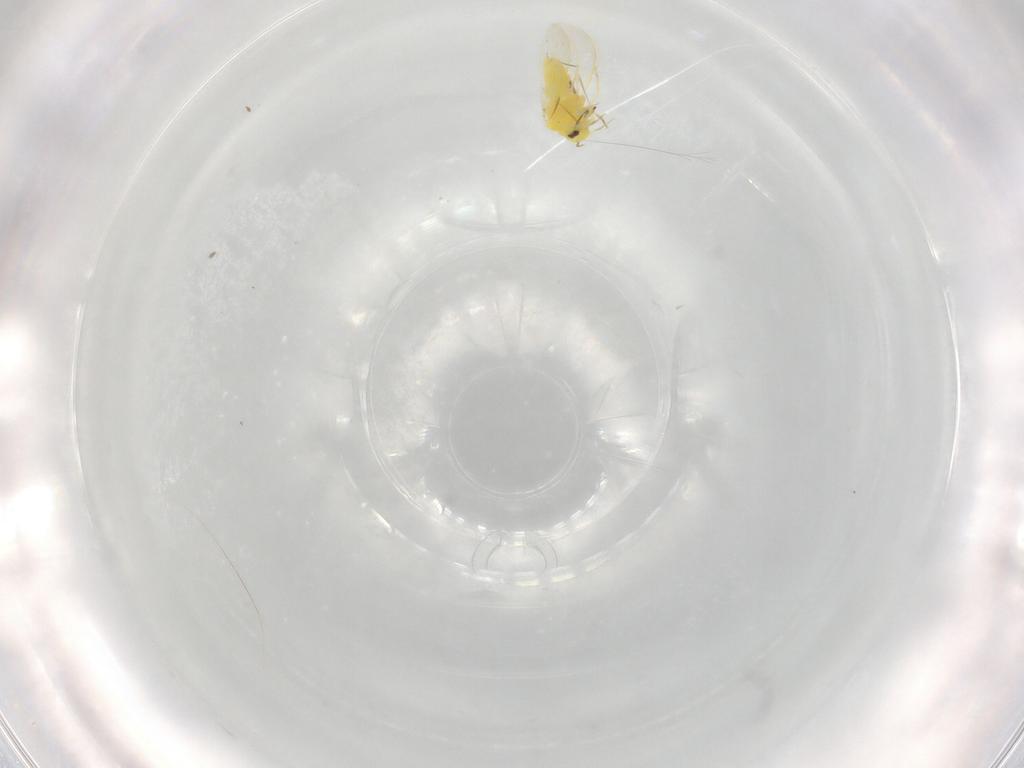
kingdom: Animalia
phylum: Arthropoda
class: Insecta
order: Hemiptera
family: Aleyrodidae
